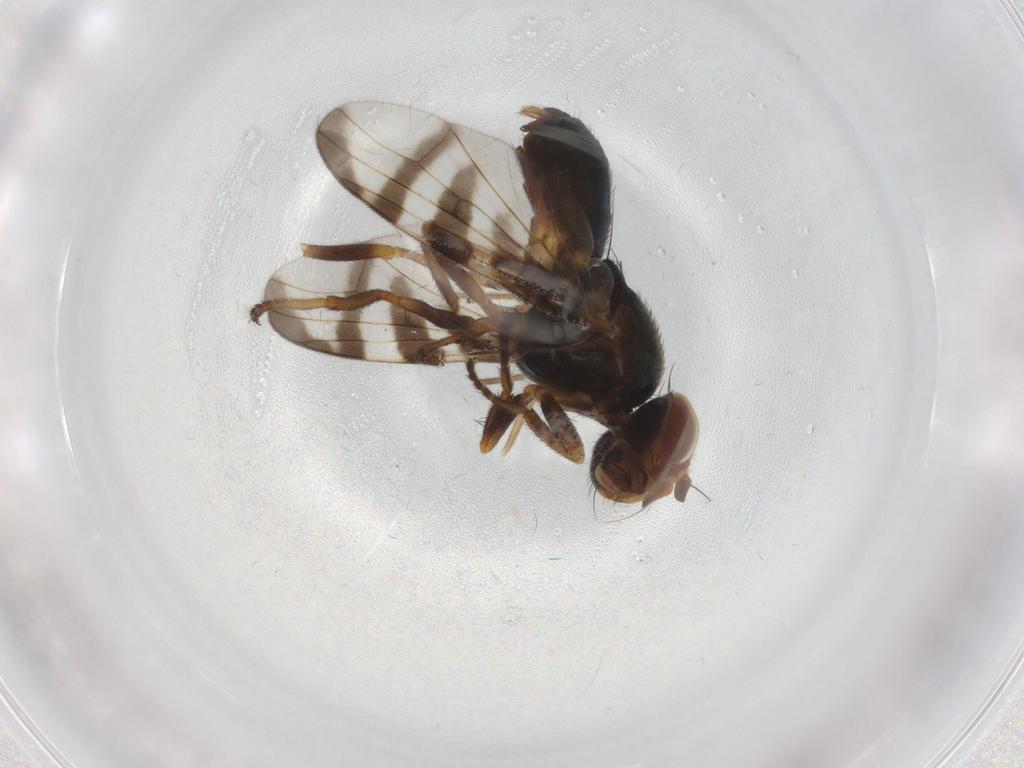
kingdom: Animalia
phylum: Arthropoda
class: Insecta
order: Diptera
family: Platystomatidae
